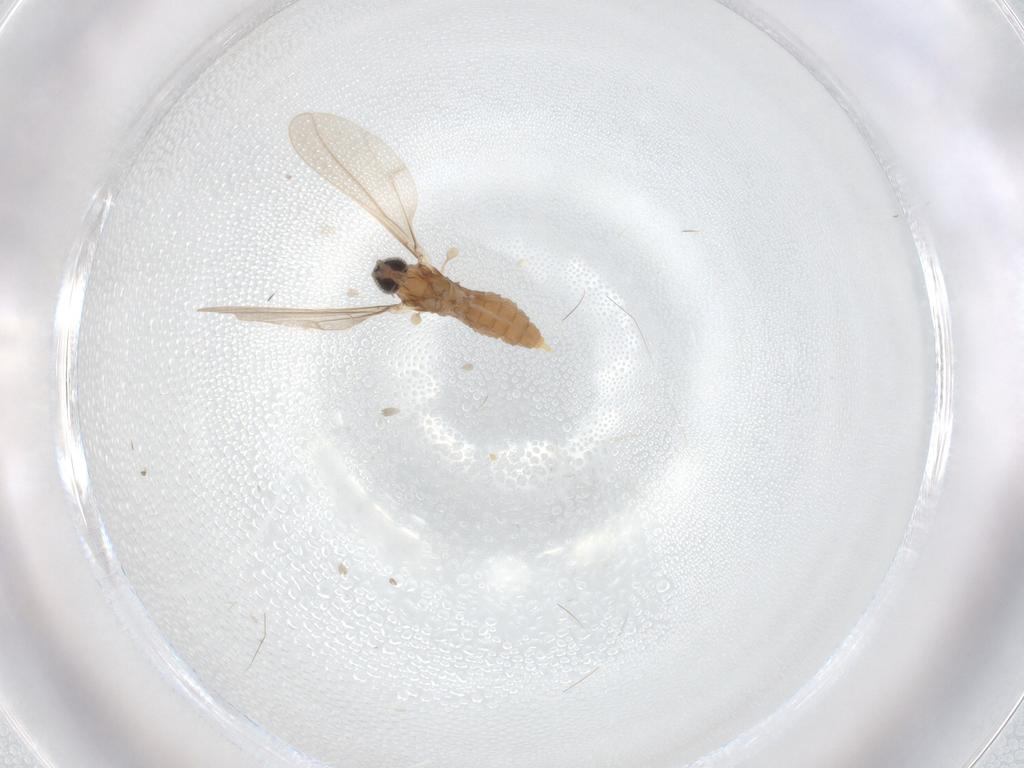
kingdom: Animalia
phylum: Arthropoda
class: Insecta
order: Diptera
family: Cecidomyiidae
